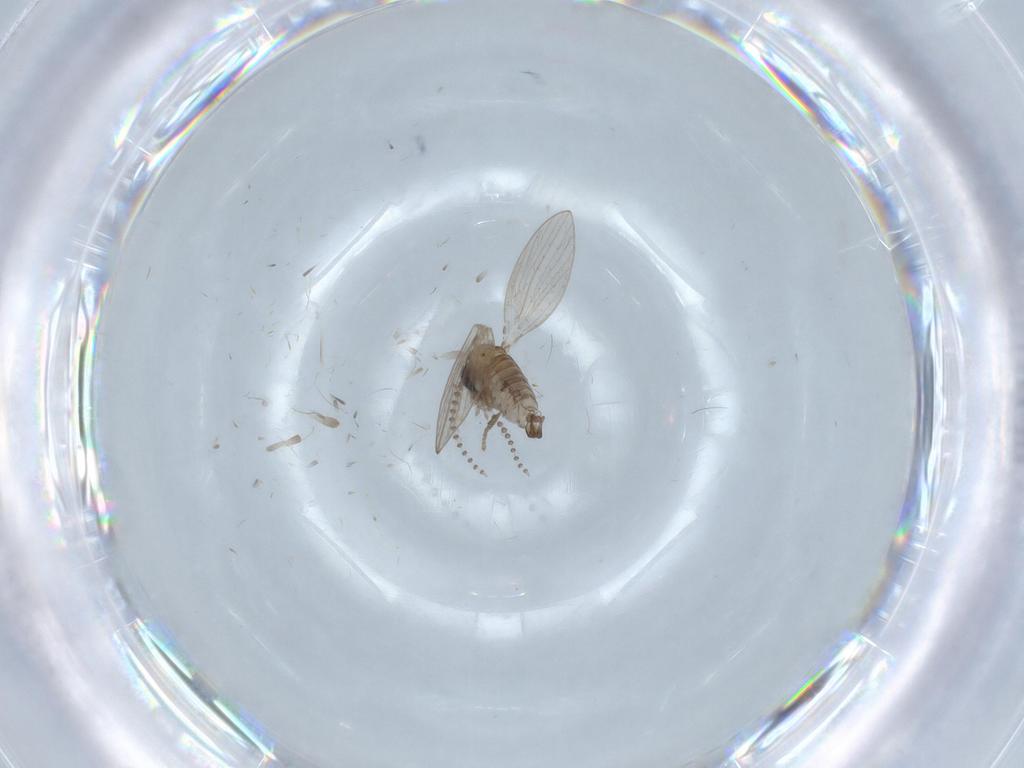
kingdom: Animalia
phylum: Arthropoda
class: Insecta
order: Diptera
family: Psychodidae
